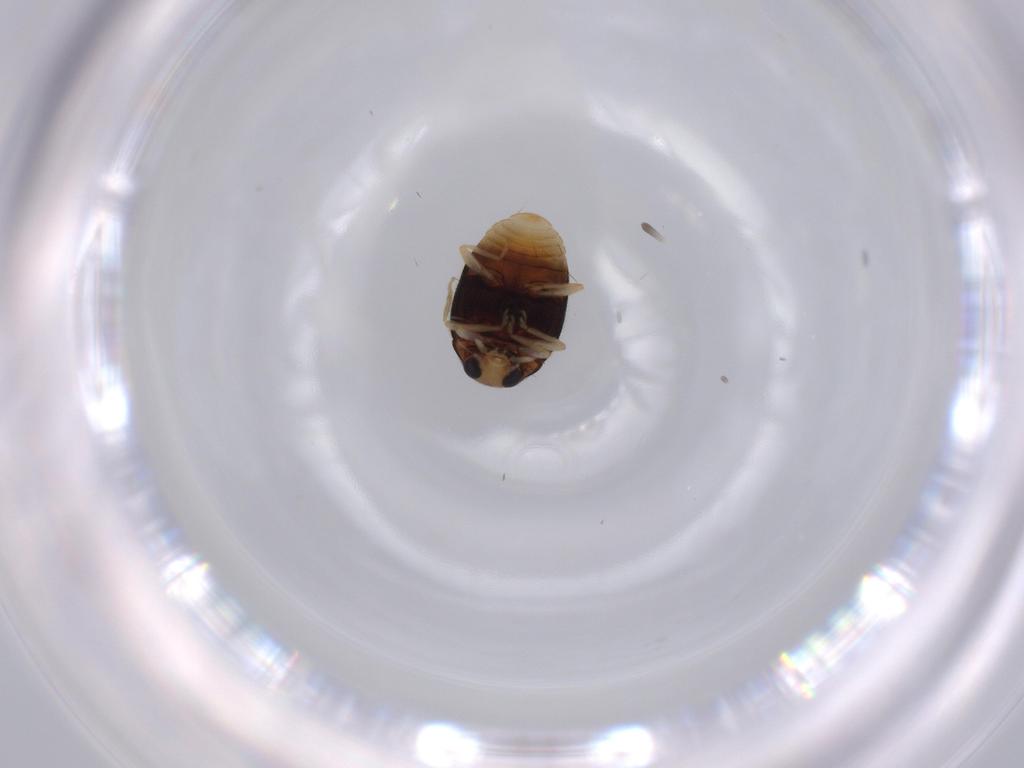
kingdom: Animalia
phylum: Arthropoda
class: Insecta
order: Coleoptera
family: Coccinellidae
